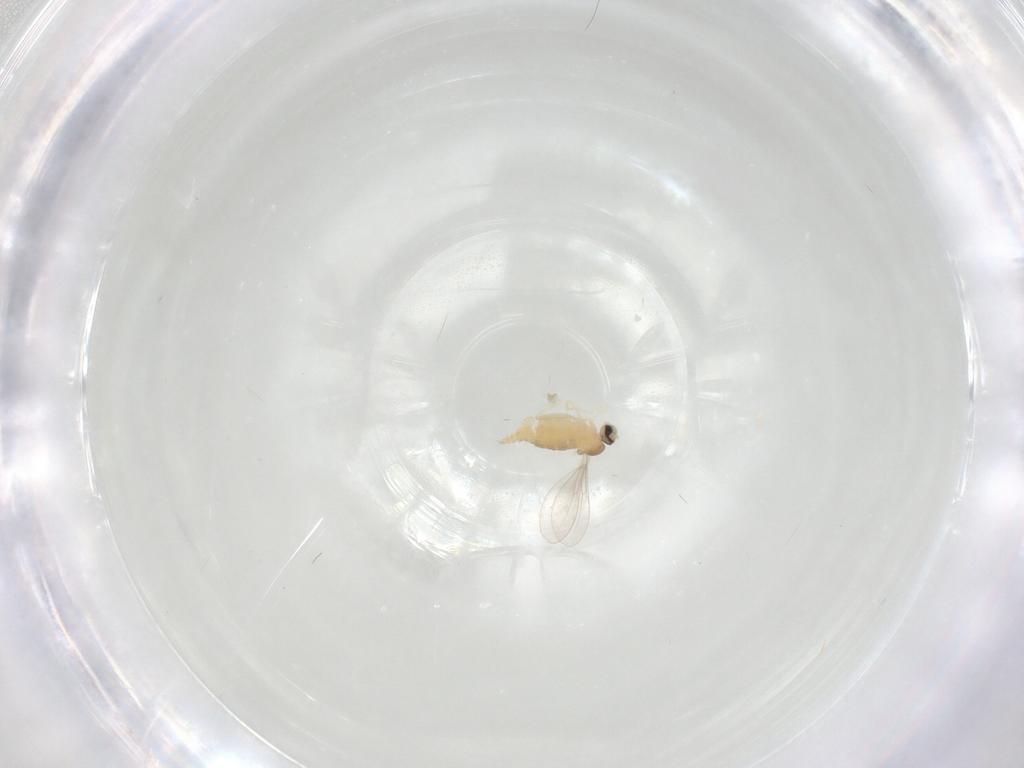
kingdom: Animalia
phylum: Arthropoda
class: Insecta
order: Diptera
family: Cecidomyiidae
